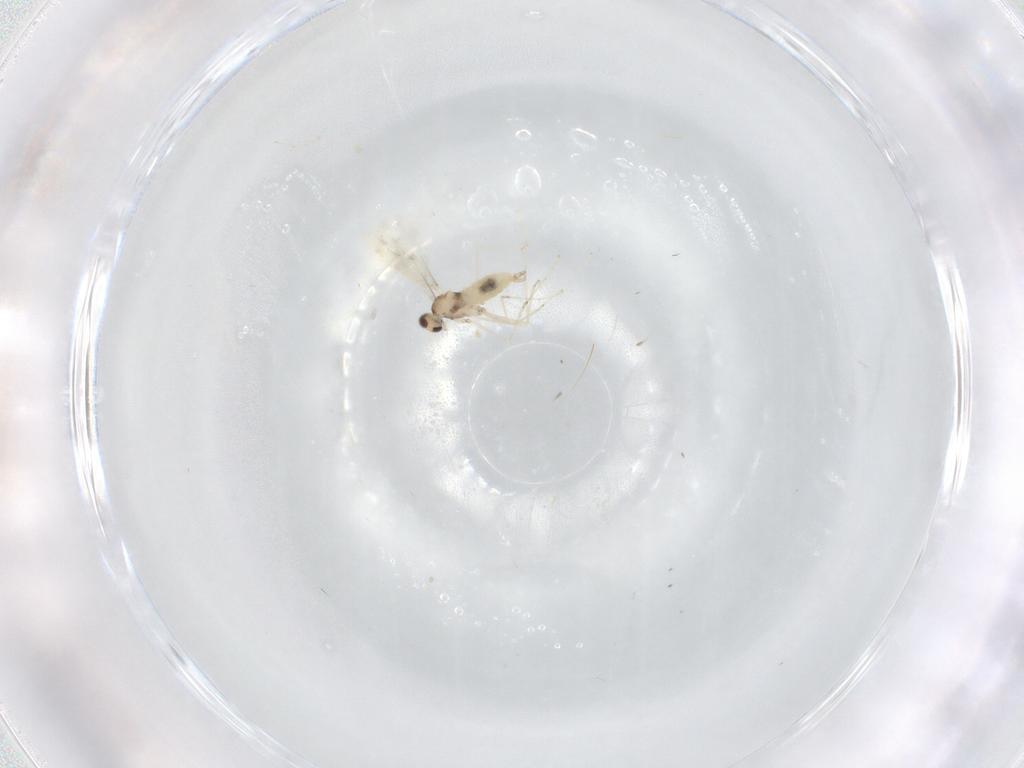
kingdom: Animalia
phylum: Arthropoda
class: Insecta
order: Diptera
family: Cecidomyiidae
